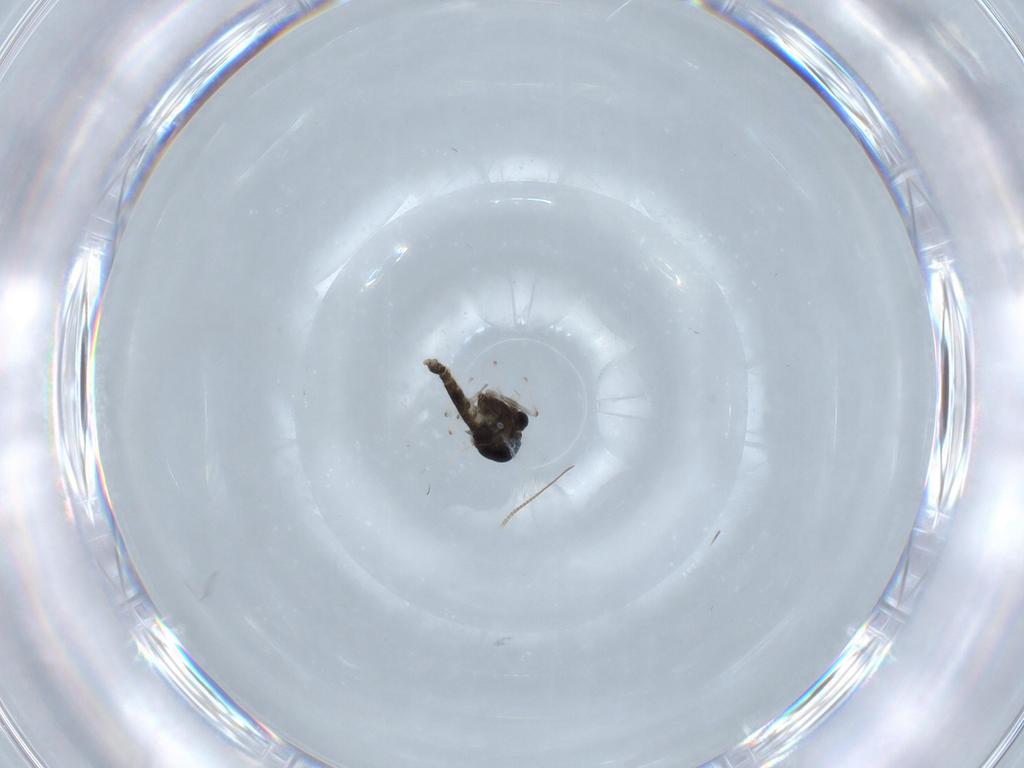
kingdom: Animalia
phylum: Arthropoda
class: Insecta
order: Diptera
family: Chironomidae
